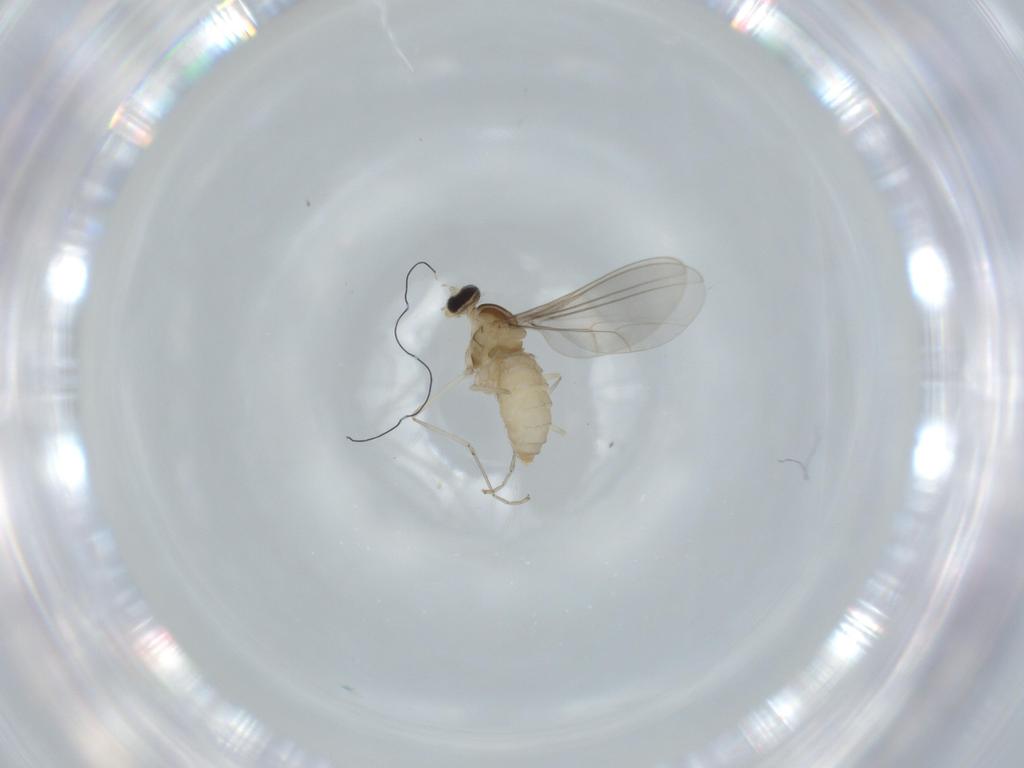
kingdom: Animalia
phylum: Arthropoda
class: Insecta
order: Diptera
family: Cecidomyiidae
